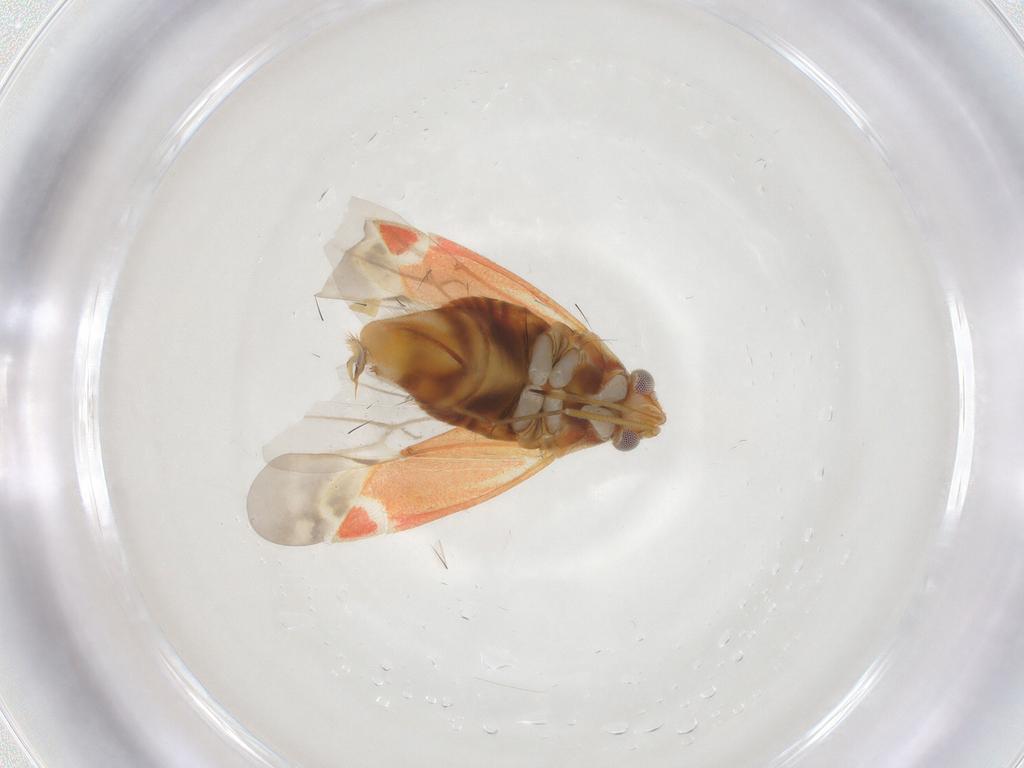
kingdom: Animalia
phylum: Arthropoda
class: Insecta
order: Hemiptera
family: Miridae
